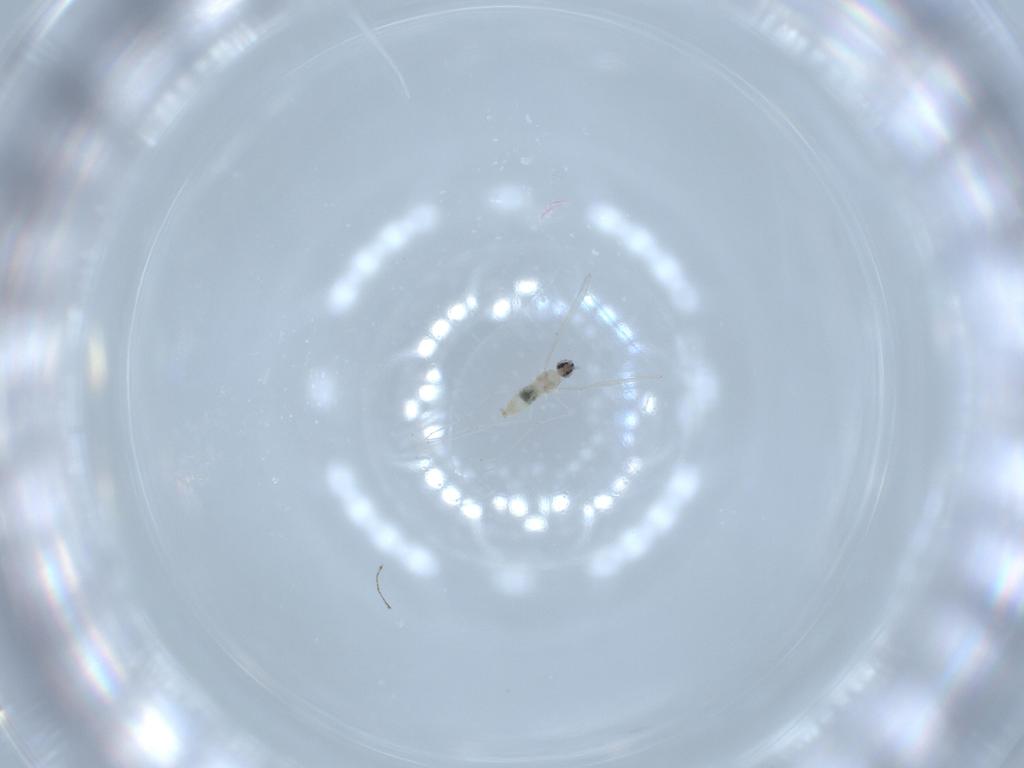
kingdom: Animalia
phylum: Arthropoda
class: Insecta
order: Diptera
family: Cecidomyiidae
